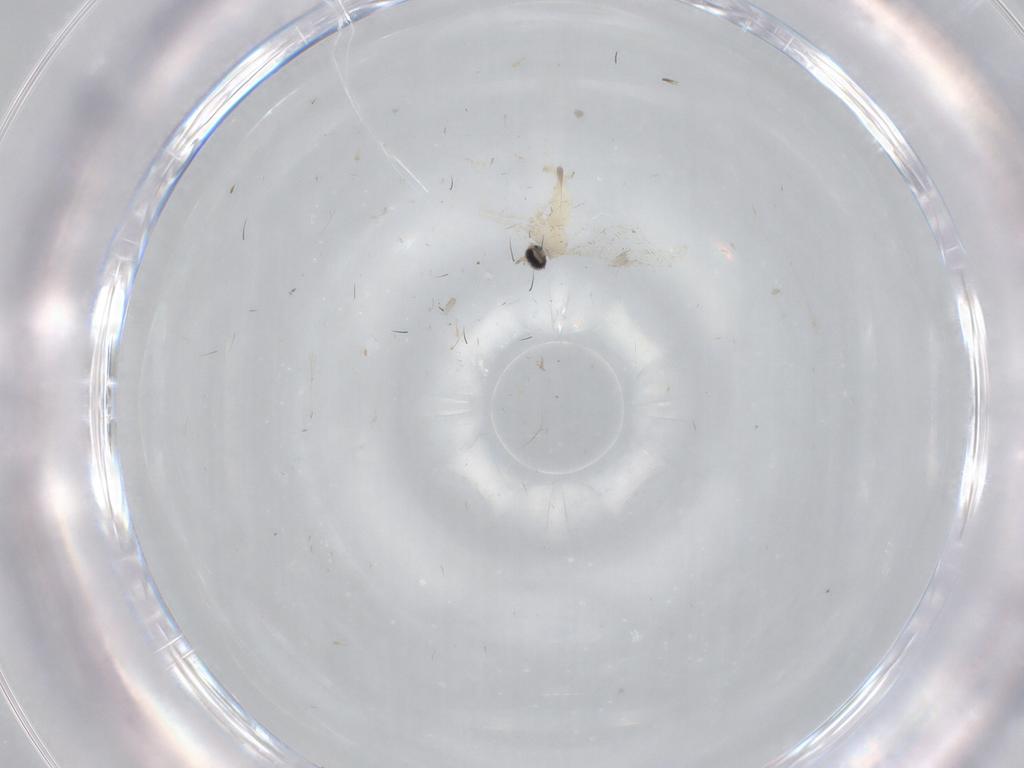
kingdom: Animalia
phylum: Arthropoda
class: Insecta
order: Diptera
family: Cecidomyiidae
